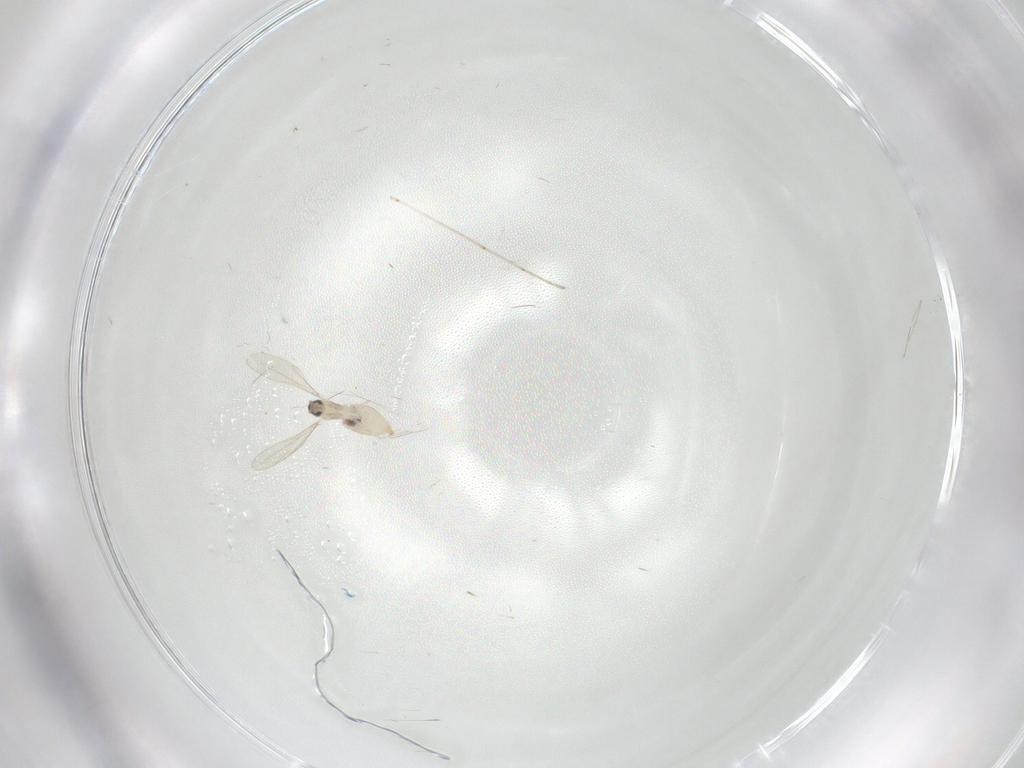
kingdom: Animalia
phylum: Arthropoda
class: Insecta
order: Diptera
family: Cecidomyiidae
